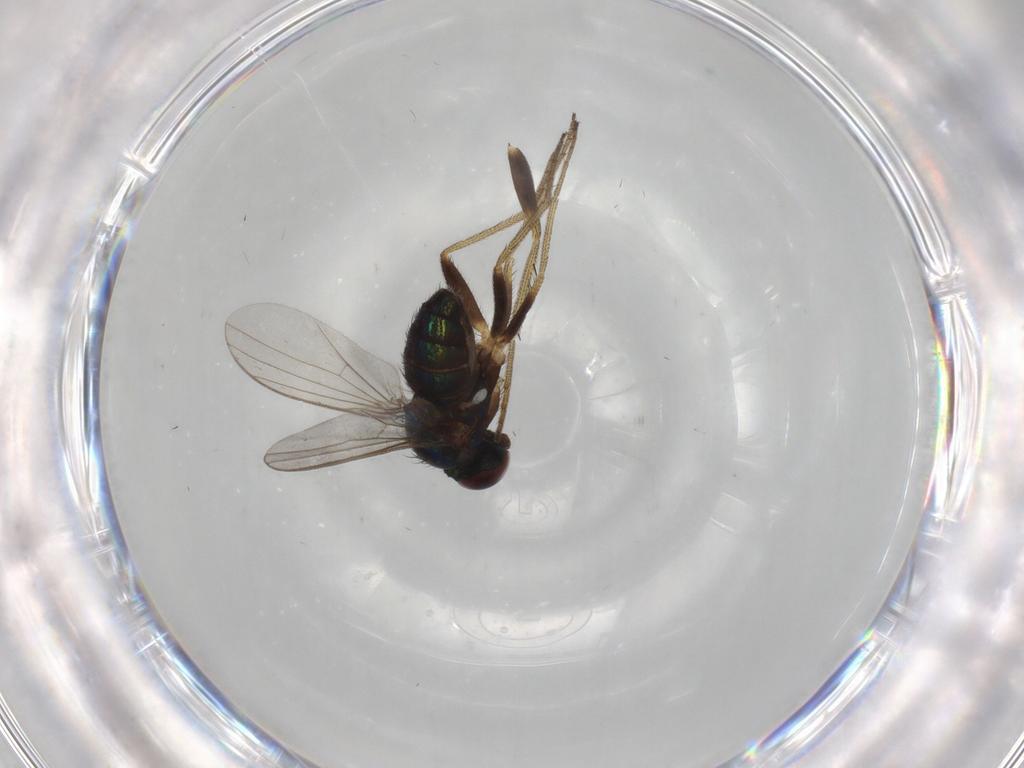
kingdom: Animalia
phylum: Arthropoda
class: Insecta
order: Diptera
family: Dolichopodidae
